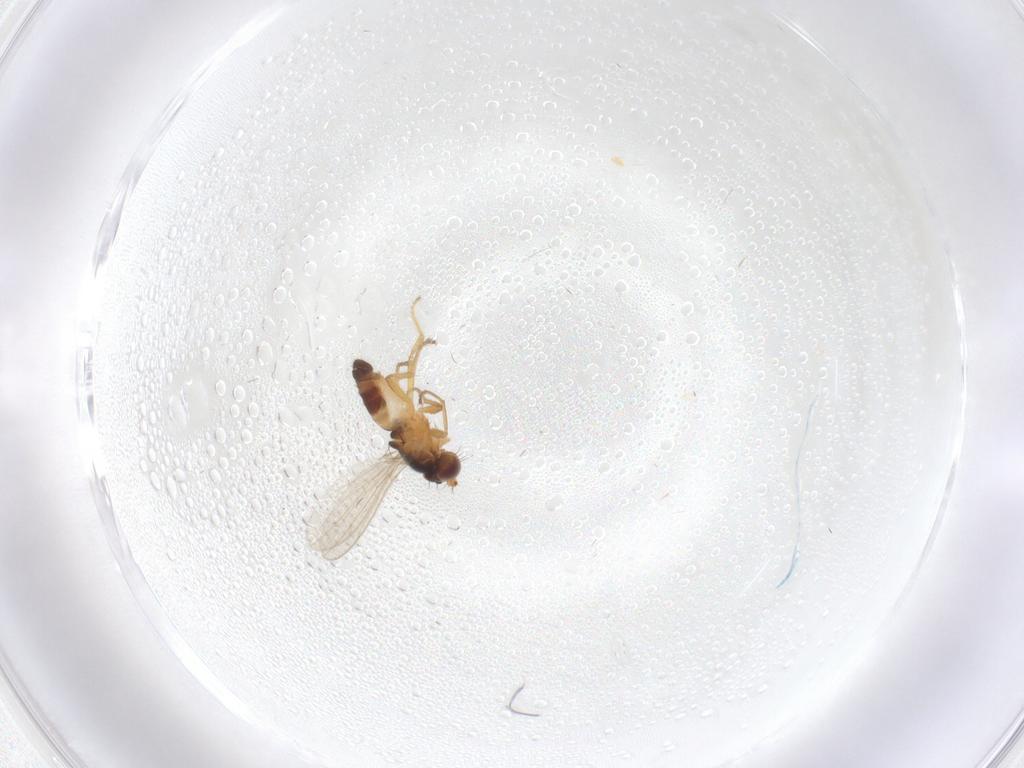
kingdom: Animalia
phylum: Arthropoda
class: Insecta
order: Diptera
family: Periscelididae
